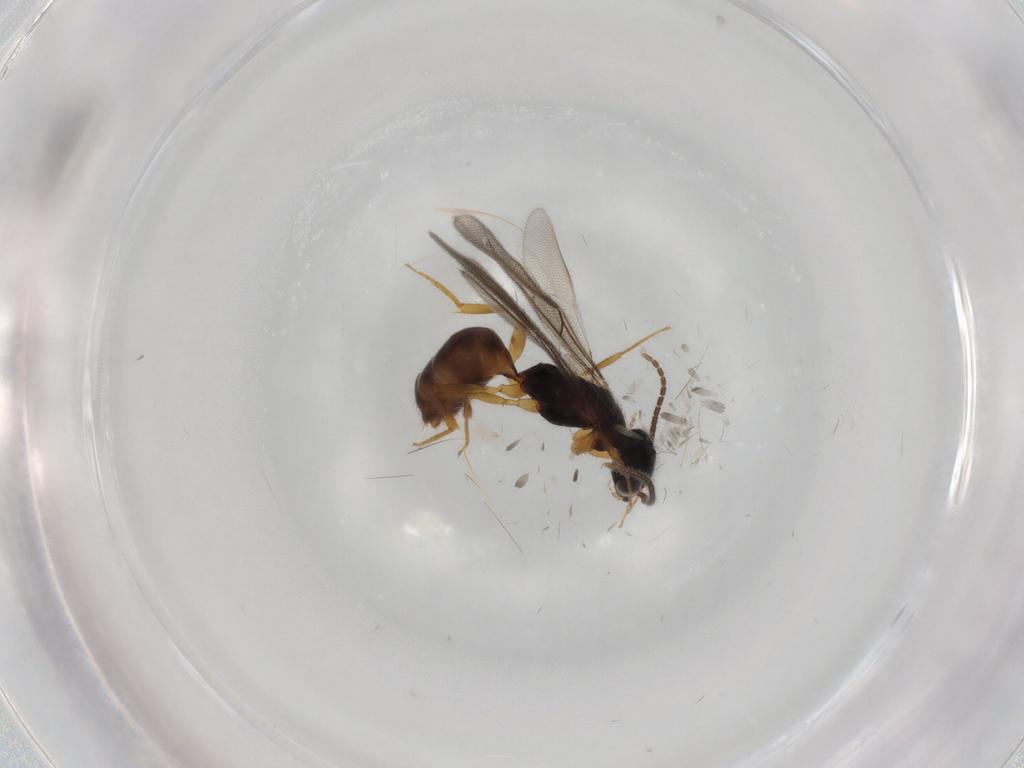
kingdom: Animalia
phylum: Arthropoda
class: Insecta
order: Hymenoptera
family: Bethylidae
